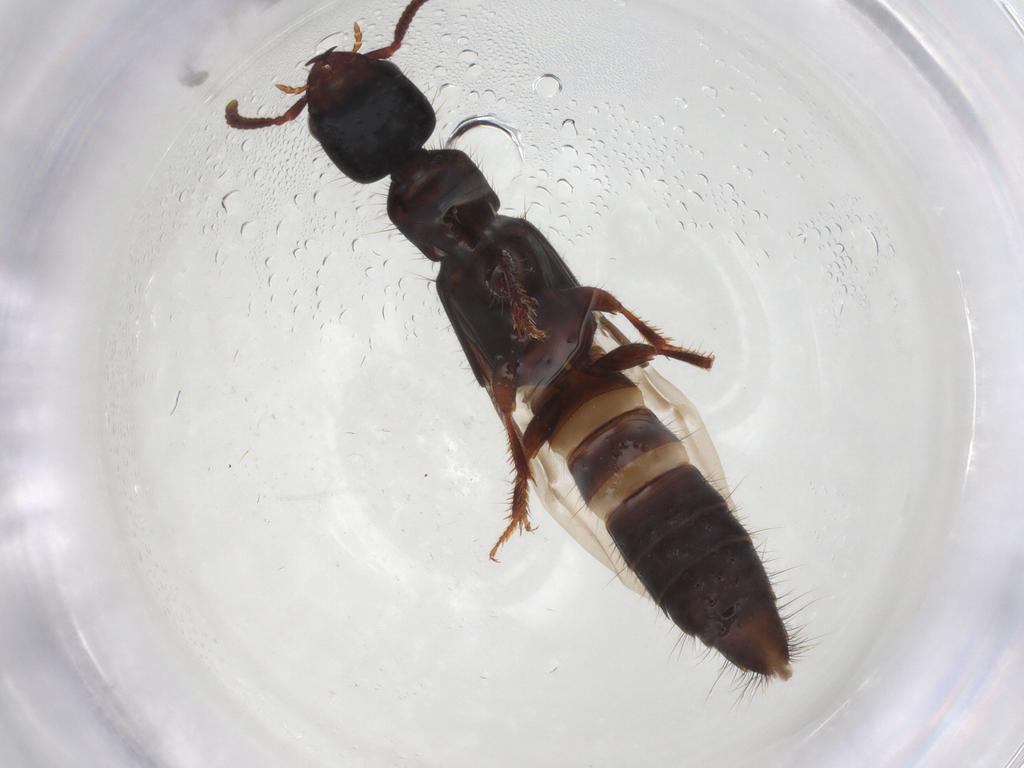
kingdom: Animalia
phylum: Arthropoda
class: Insecta
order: Coleoptera
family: Staphylinidae
